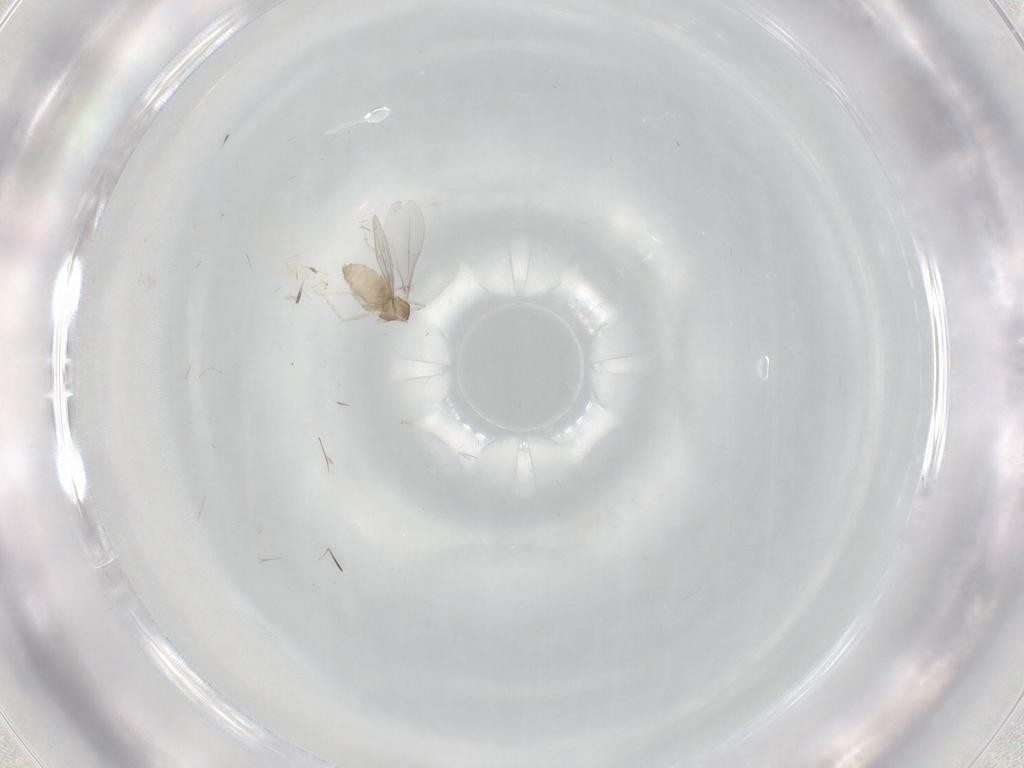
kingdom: Animalia
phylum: Arthropoda
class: Insecta
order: Diptera
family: Cecidomyiidae
